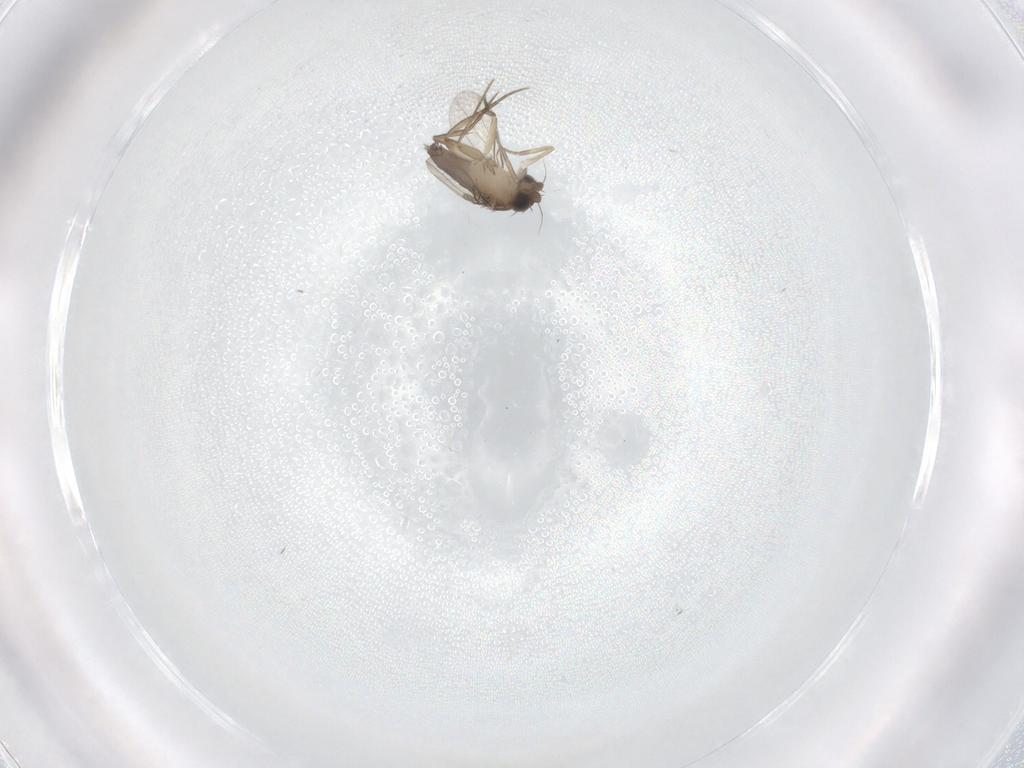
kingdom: Animalia
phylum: Arthropoda
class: Insecta
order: Diptera
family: Phoridae
